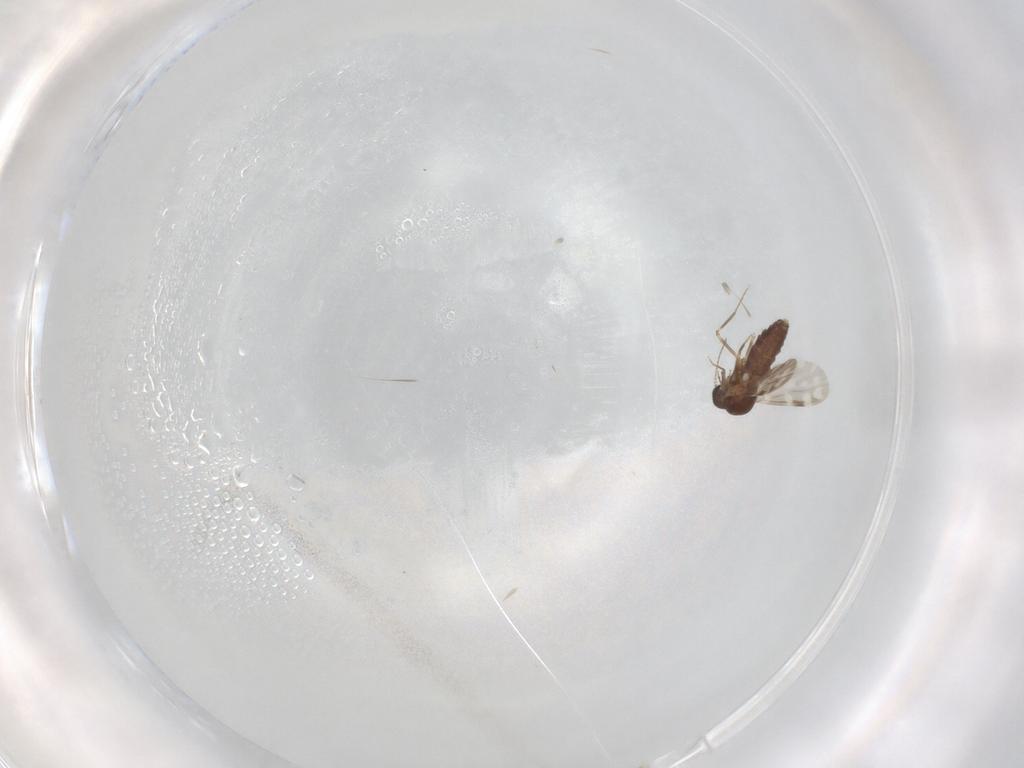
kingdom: Animalia
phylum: Arthropoda
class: Insecta
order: Diptera
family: Ceratopogonidae
